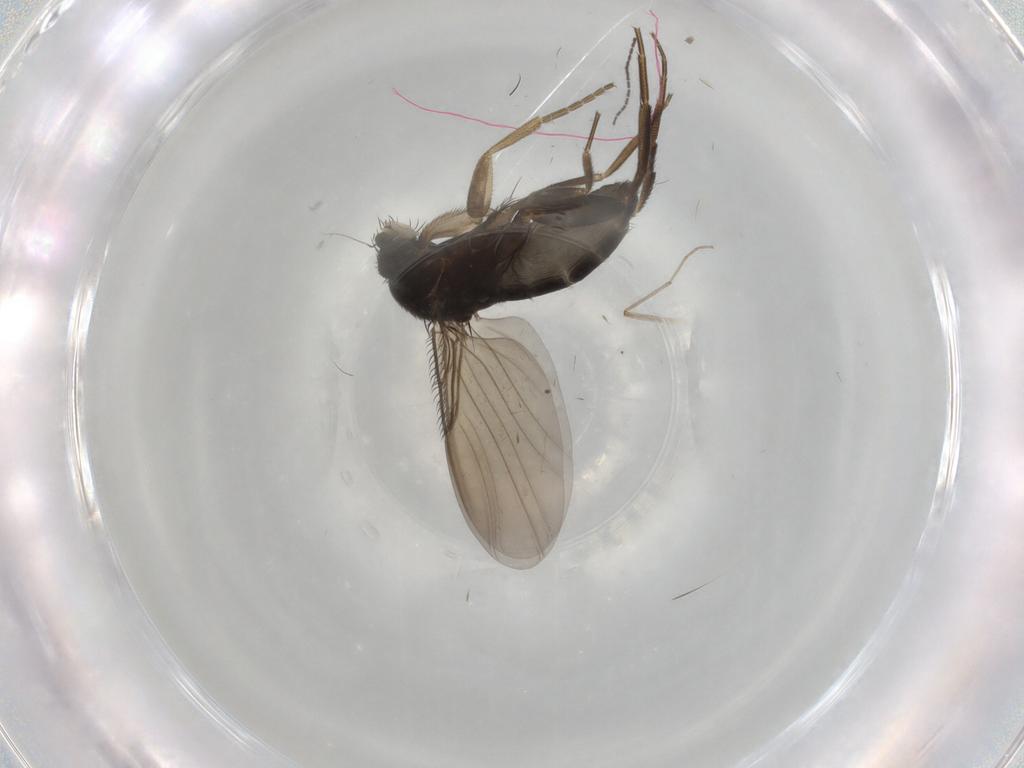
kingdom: Animalia
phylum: Arthropoda
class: Insecta
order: Diptera
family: Phoridae
